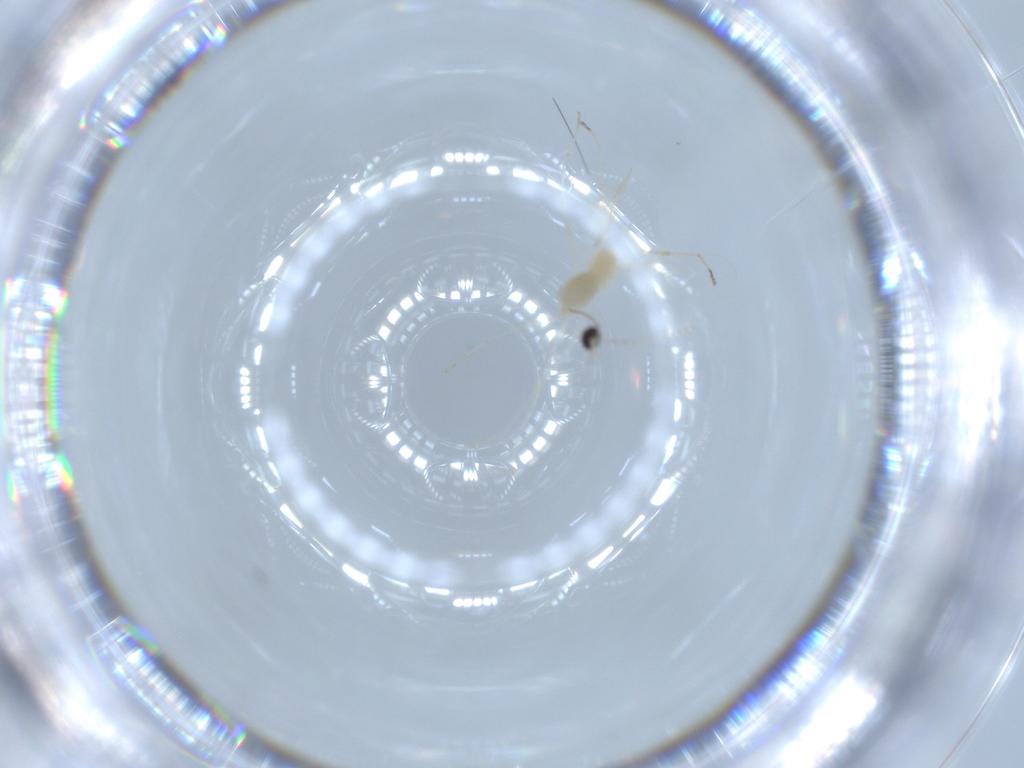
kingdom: Animalia
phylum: Arthropoda
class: Insecta
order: Diptera
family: Cecidomyiidae
